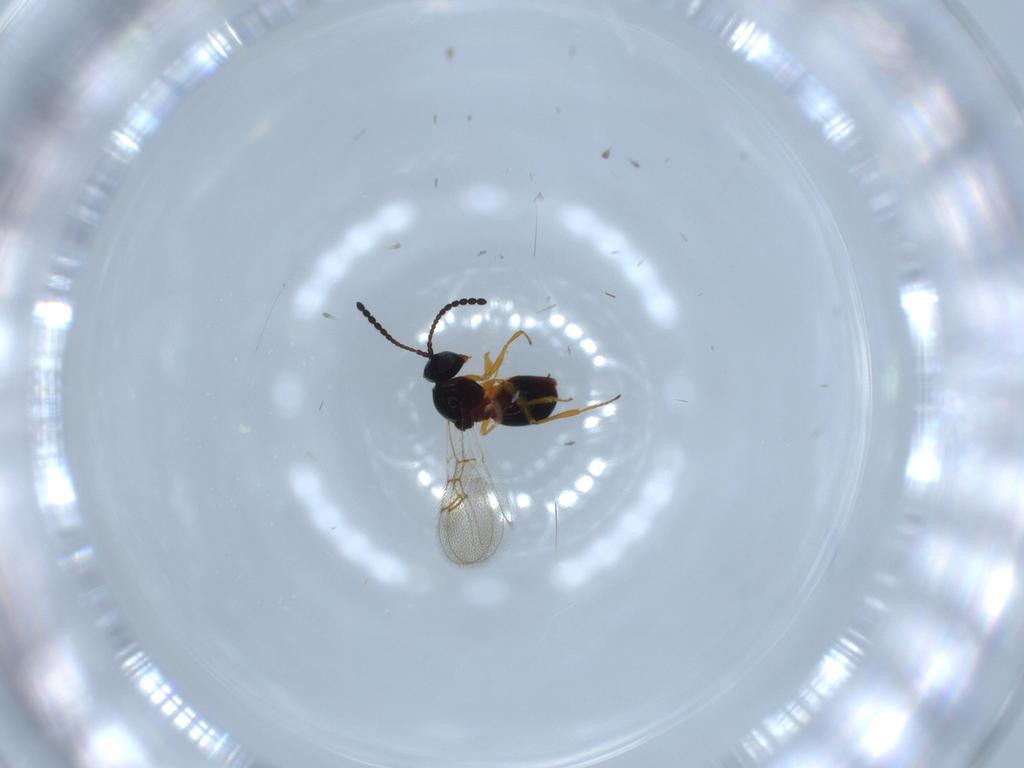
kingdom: Animalia
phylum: Arthropoda
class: Insecta
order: Hymenoptera
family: Figitidae
